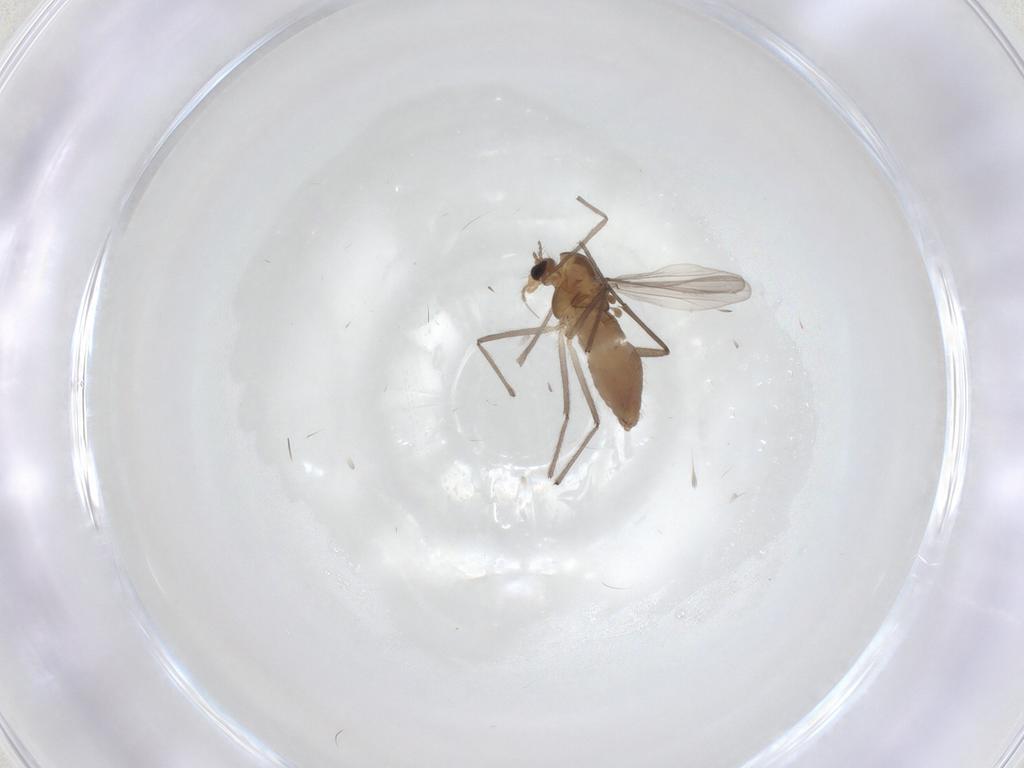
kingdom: Animalia
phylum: Arthropoda
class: Insecta
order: Diptera
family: Chironomidae
